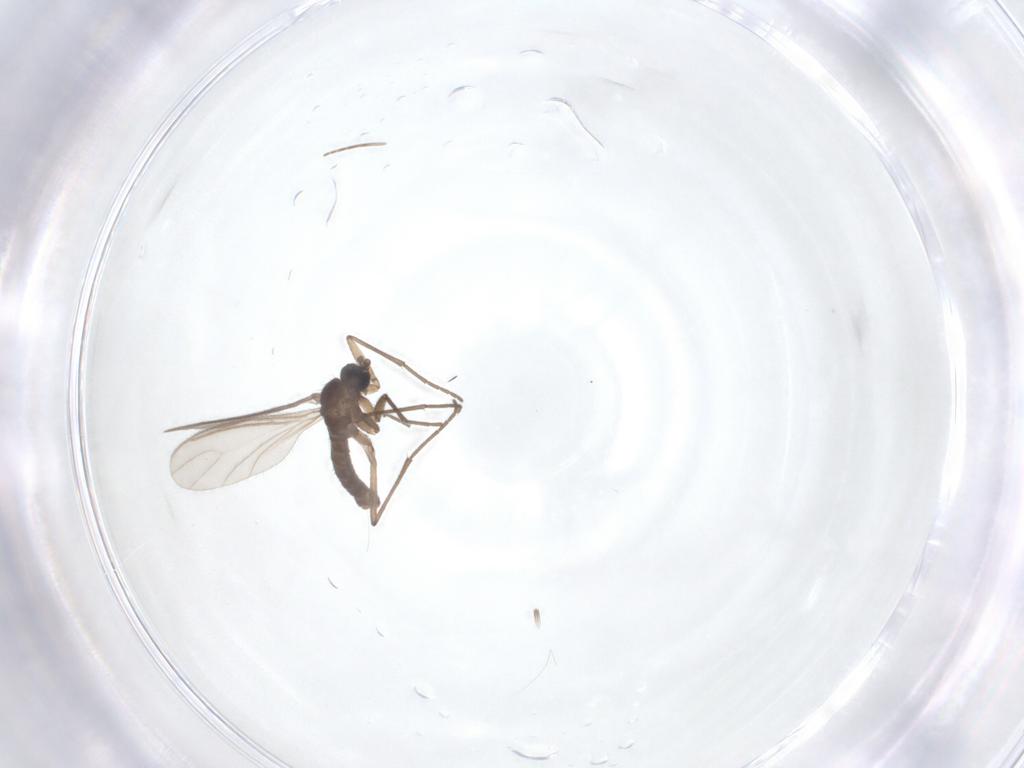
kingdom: Animalia
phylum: Arthropoda
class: Insecta
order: Diptera
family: Sciaridae
